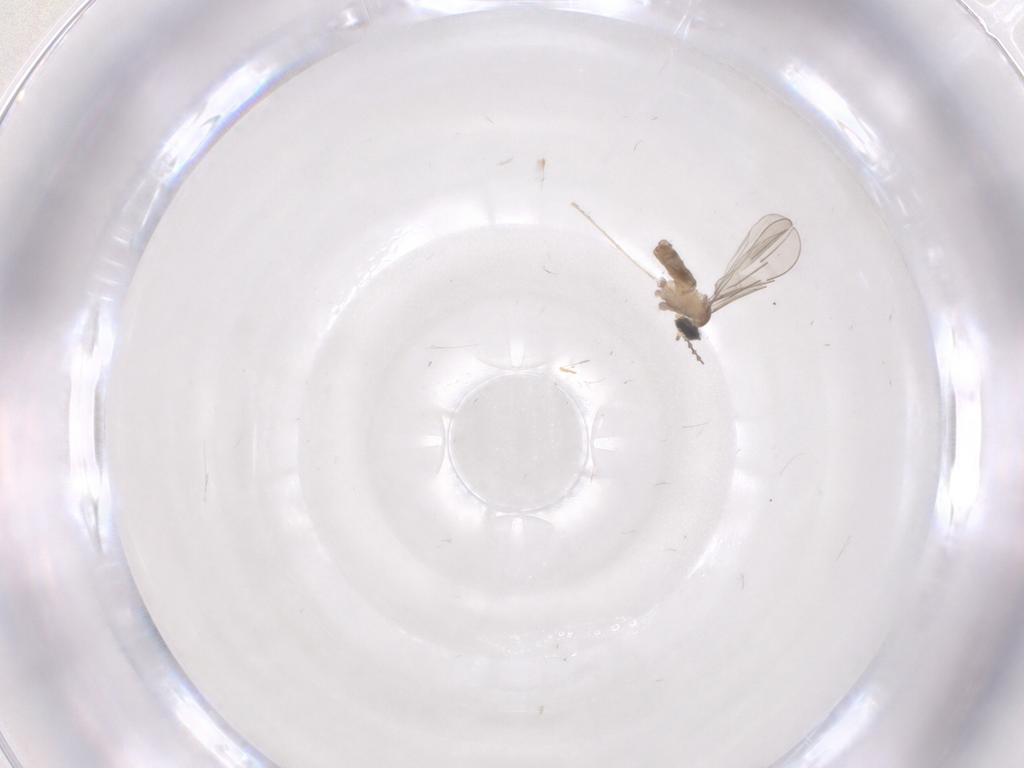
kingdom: Animalia
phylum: Arthropoda
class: Insecta
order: Diptera
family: Cecidomyiidae
